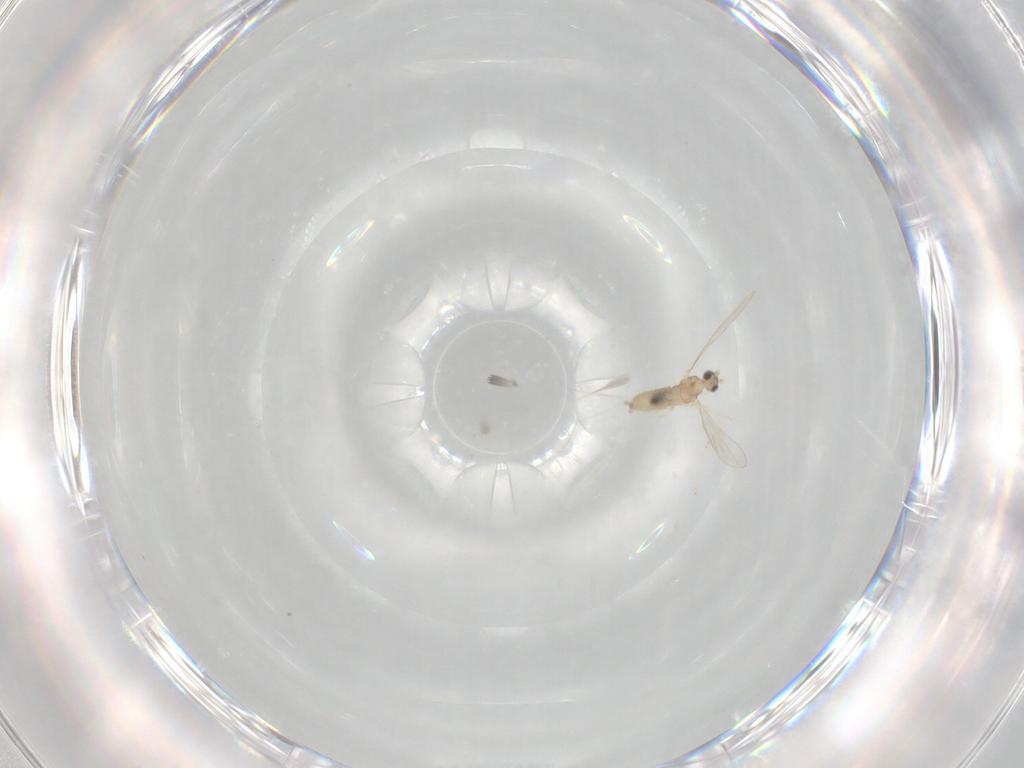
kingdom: Animalia
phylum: Arthropoda
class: Insecta
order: Diptera
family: Cecidomyiidae
